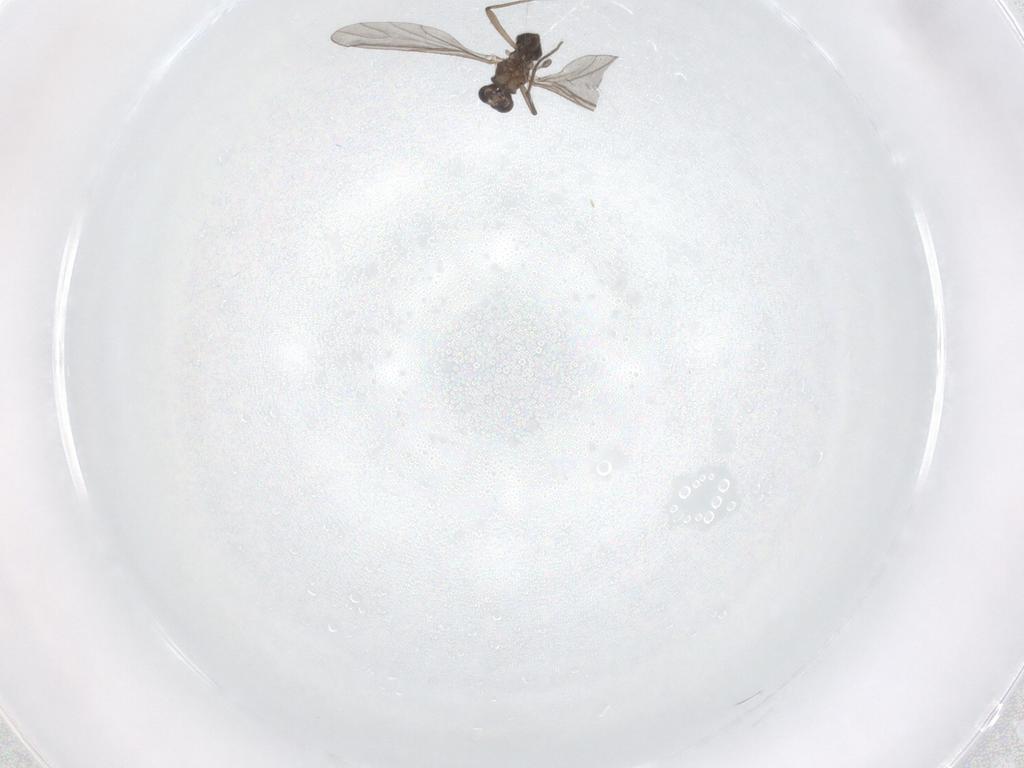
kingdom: Animalia
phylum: Arthropoda
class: Insecta
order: Diptera
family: Sciaridae
